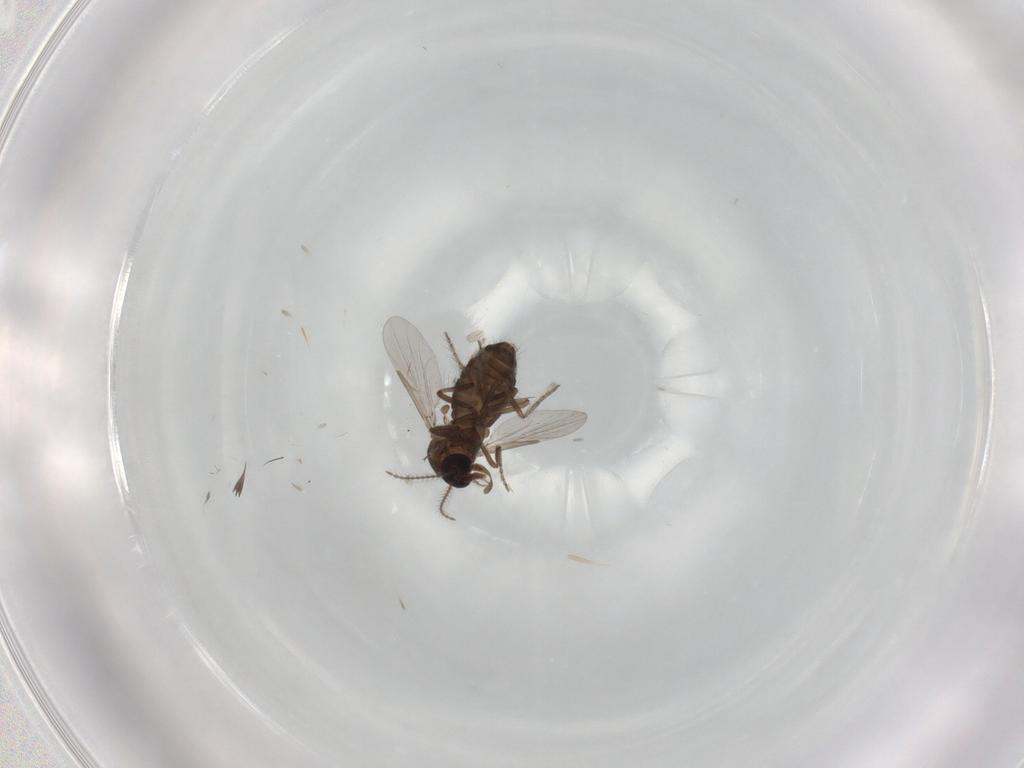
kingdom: Animalia
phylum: Arthropoda
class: Insecta
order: Diptera
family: Ceratopogonidae
